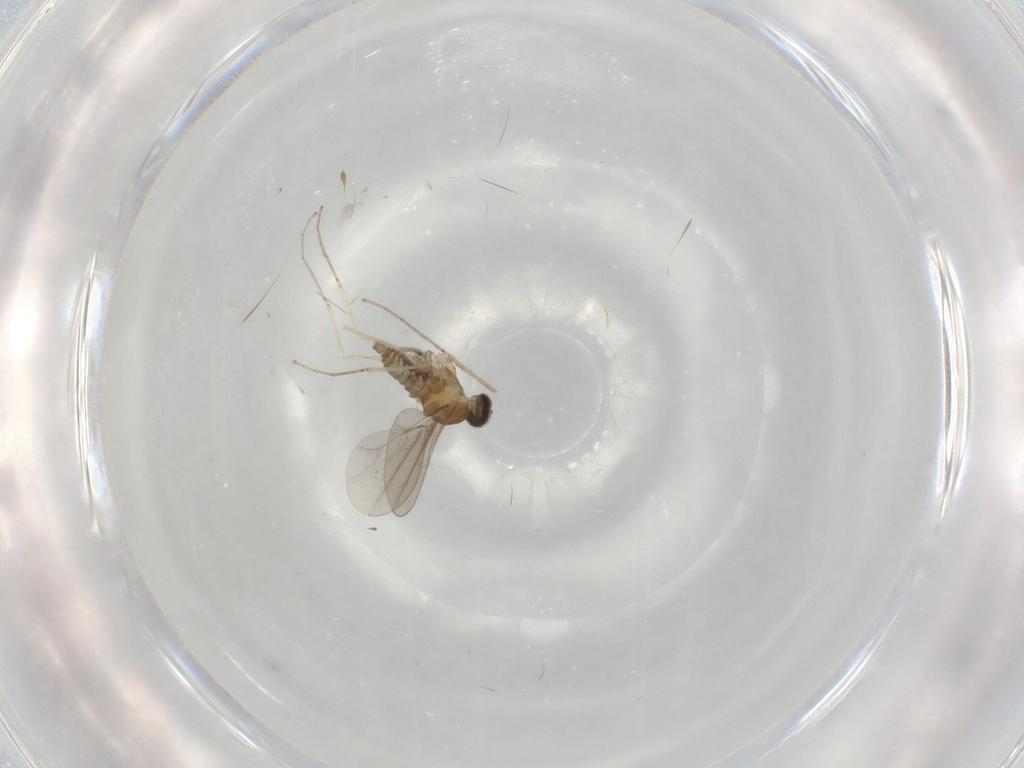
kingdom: Animalia
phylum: Arthropoda
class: Insecta
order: Diptera
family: Cecidomyiidae
